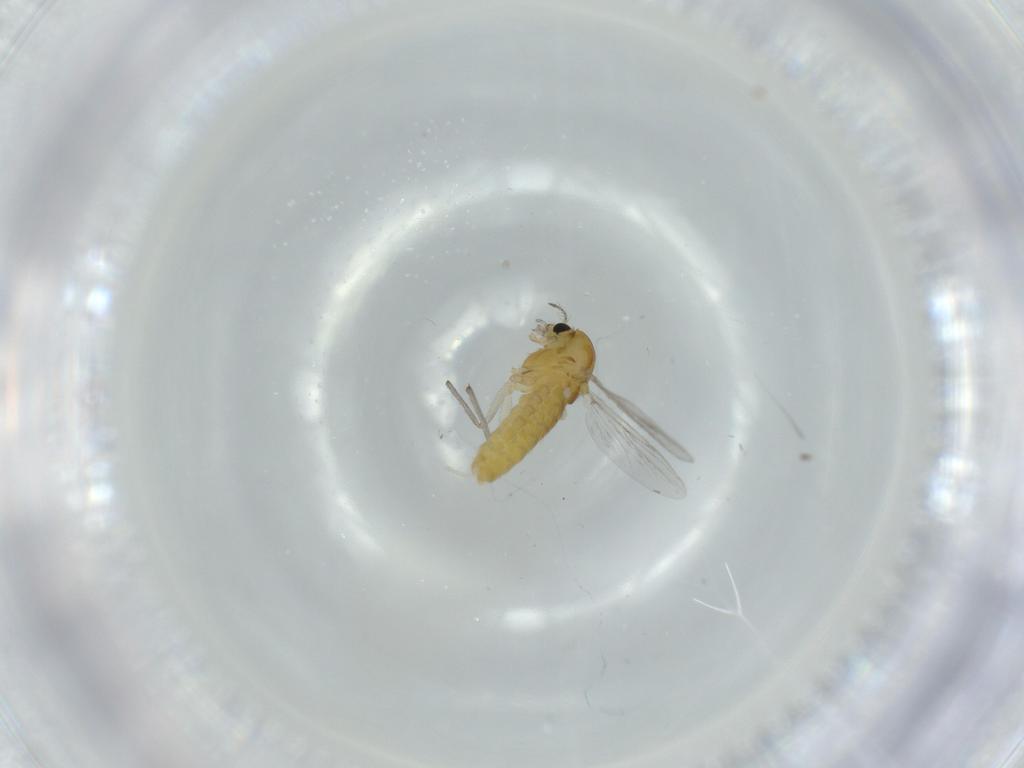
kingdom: Animalia
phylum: Arthropoda
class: Insecta
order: Diptera
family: Chironomidae
